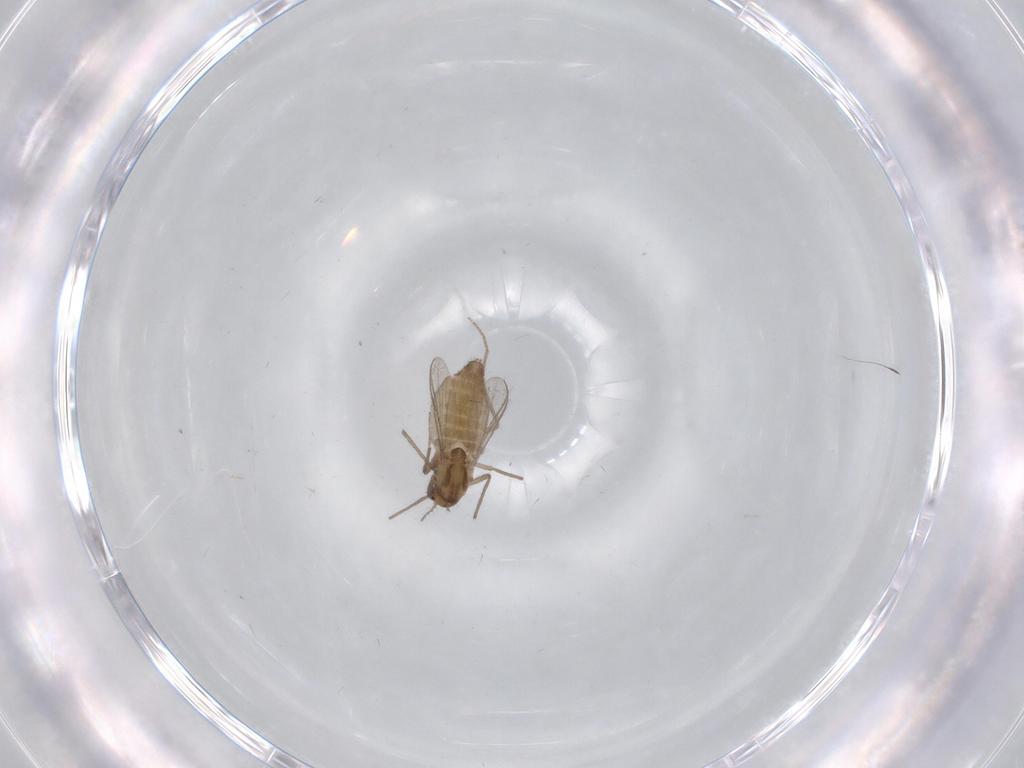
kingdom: Animalia
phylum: Arthropoda
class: Insecta
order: Diptera
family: Chironomidae
